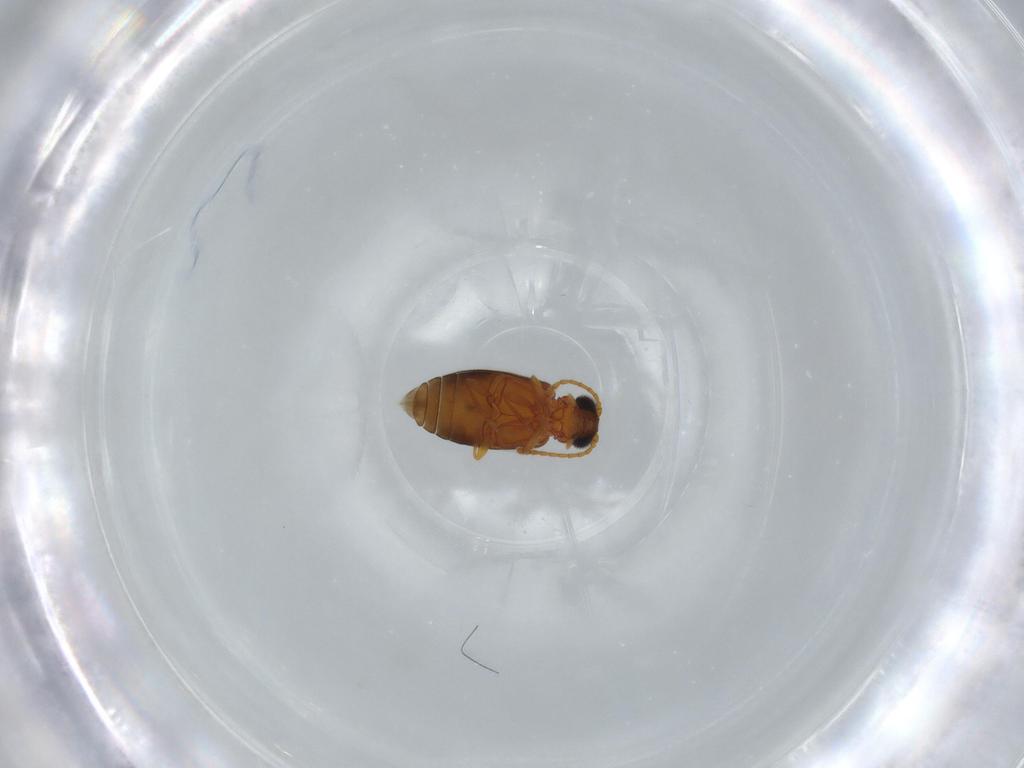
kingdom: Animalia
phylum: Arthropoda
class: Insecta
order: Coleoptera
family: Aderidae
